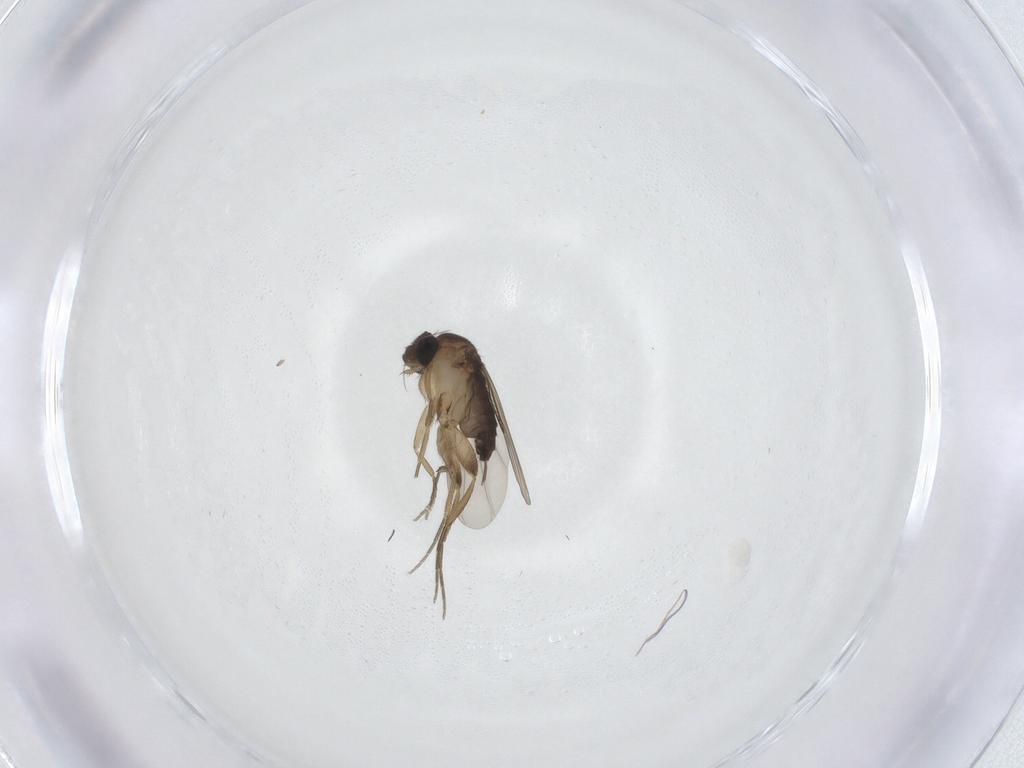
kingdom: Animalia
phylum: Arthropoda
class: Insecta
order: Diptera
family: Phoridae
